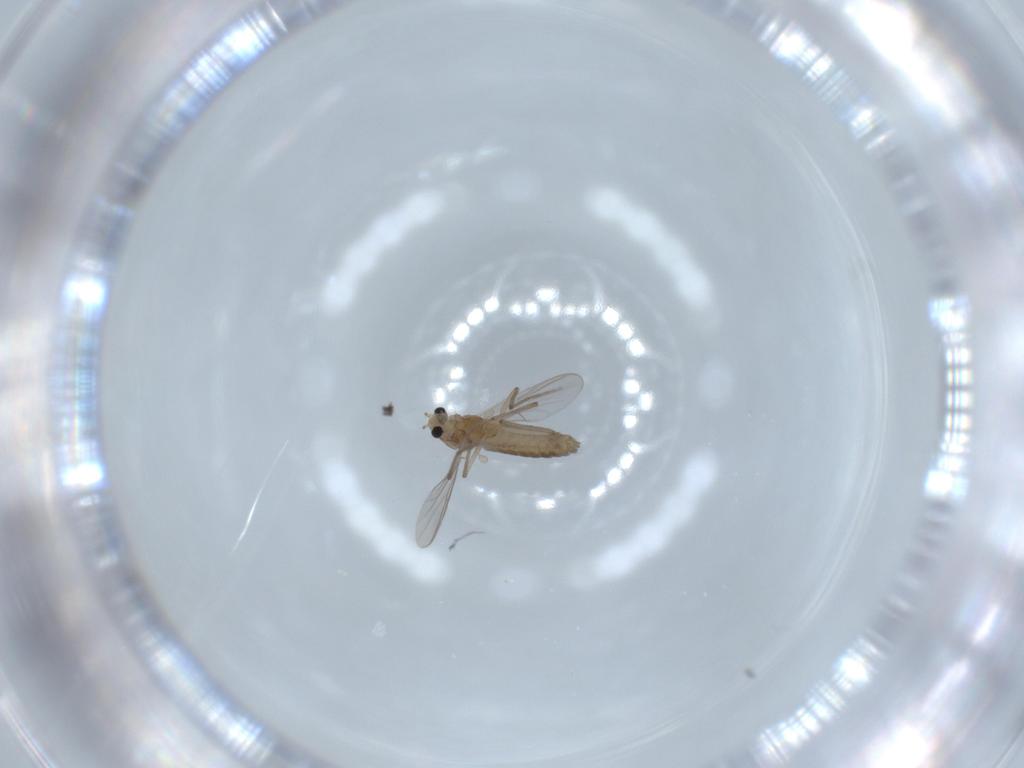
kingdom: Animalia
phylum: Arthropoda
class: Insecta
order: Diptera
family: Chironomidae
